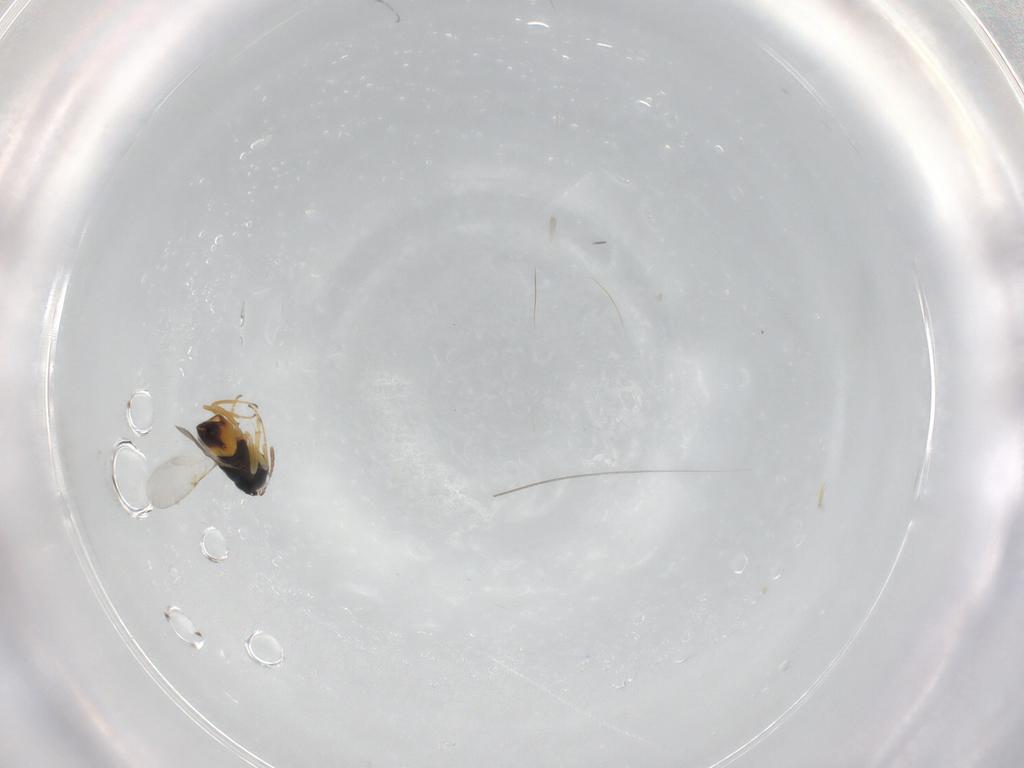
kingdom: Animalia
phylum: Arthropoda
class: Insecta
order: Hymenoptera
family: Encyrtidae
